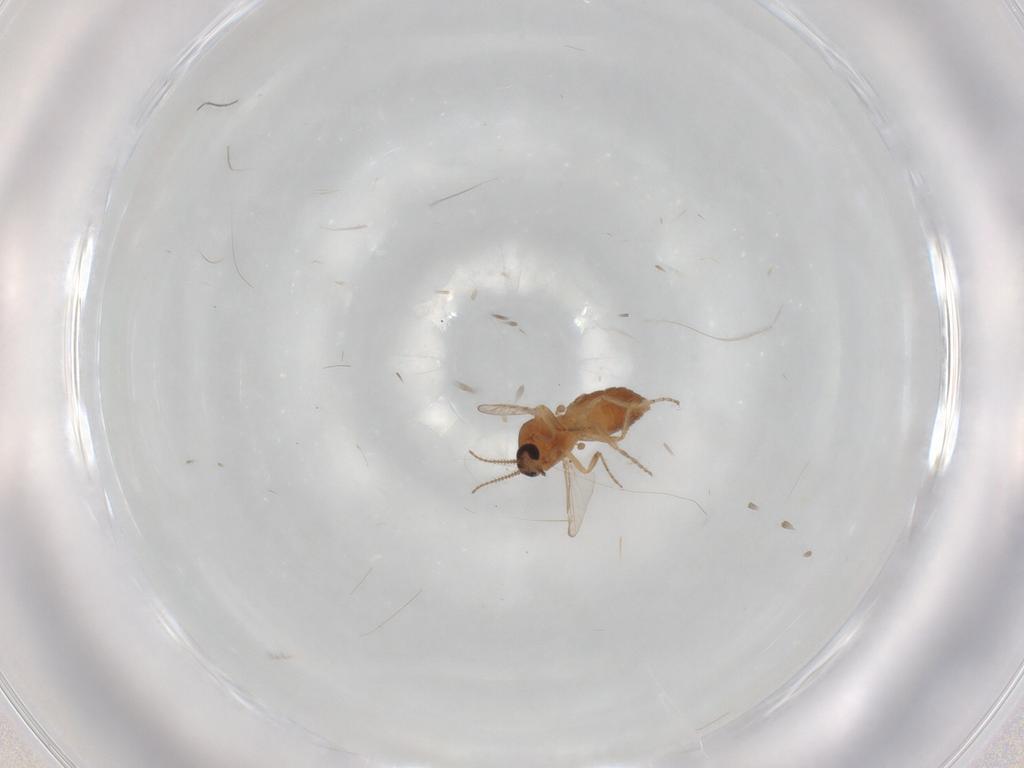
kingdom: Animalia
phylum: Arthropoda
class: Insecta
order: Diptera
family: Ceratopogonidae
